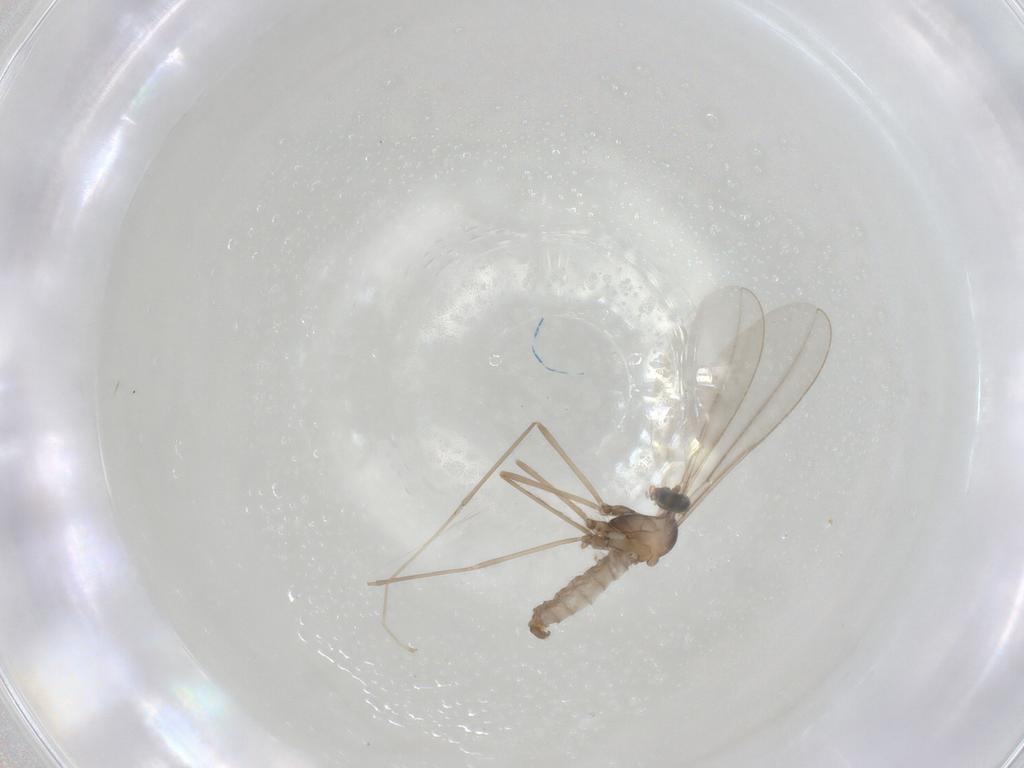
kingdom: Animalia
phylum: Arthropoda
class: Insecta
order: Diptera
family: Cecidomyiidae
